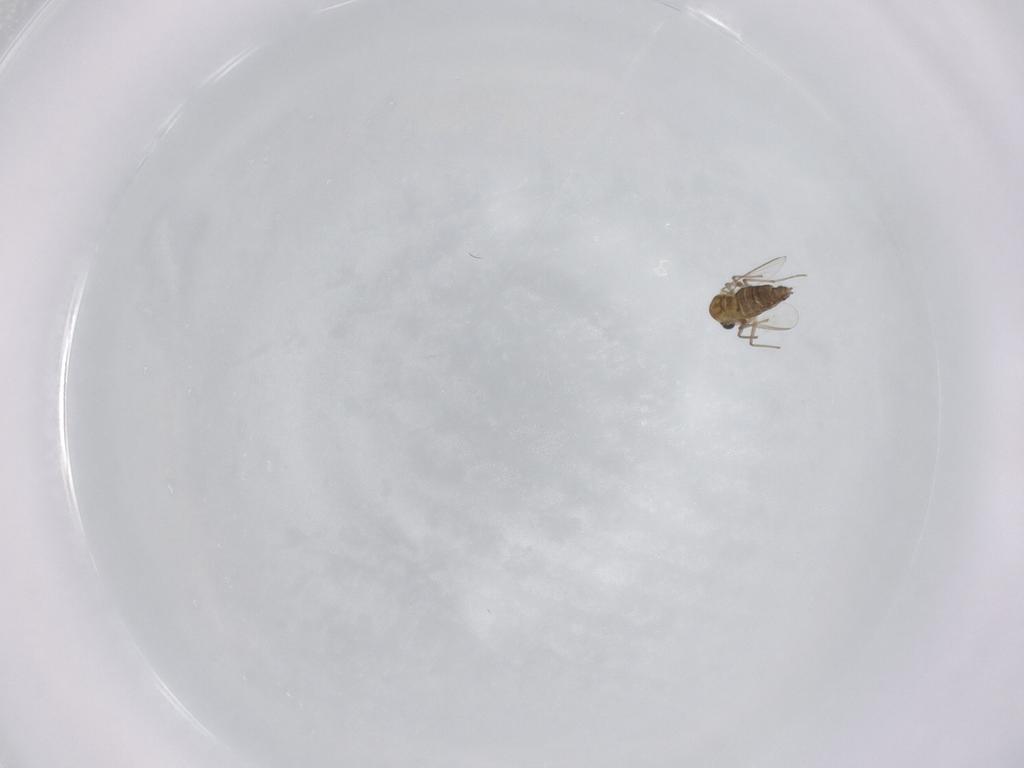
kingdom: Animalia
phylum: Arthropoda
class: Insecta
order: Diptera
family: Chironomidae
